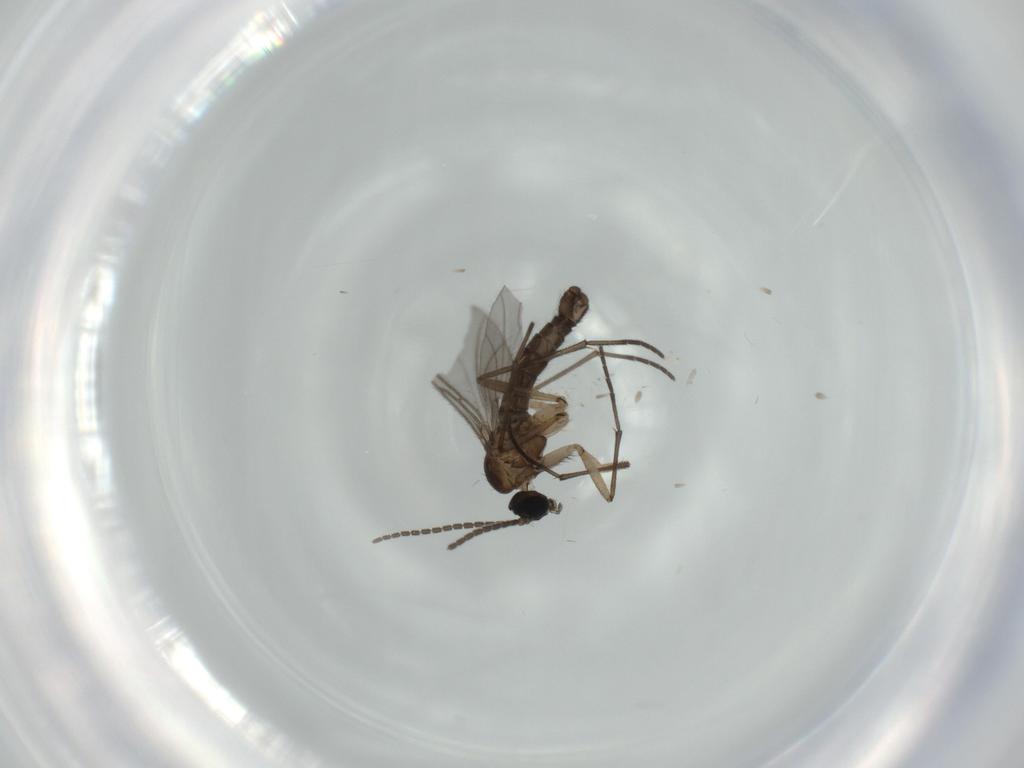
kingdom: Animalia
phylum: Arthropoda
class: Insecta
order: Diptera
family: Sciaridae
